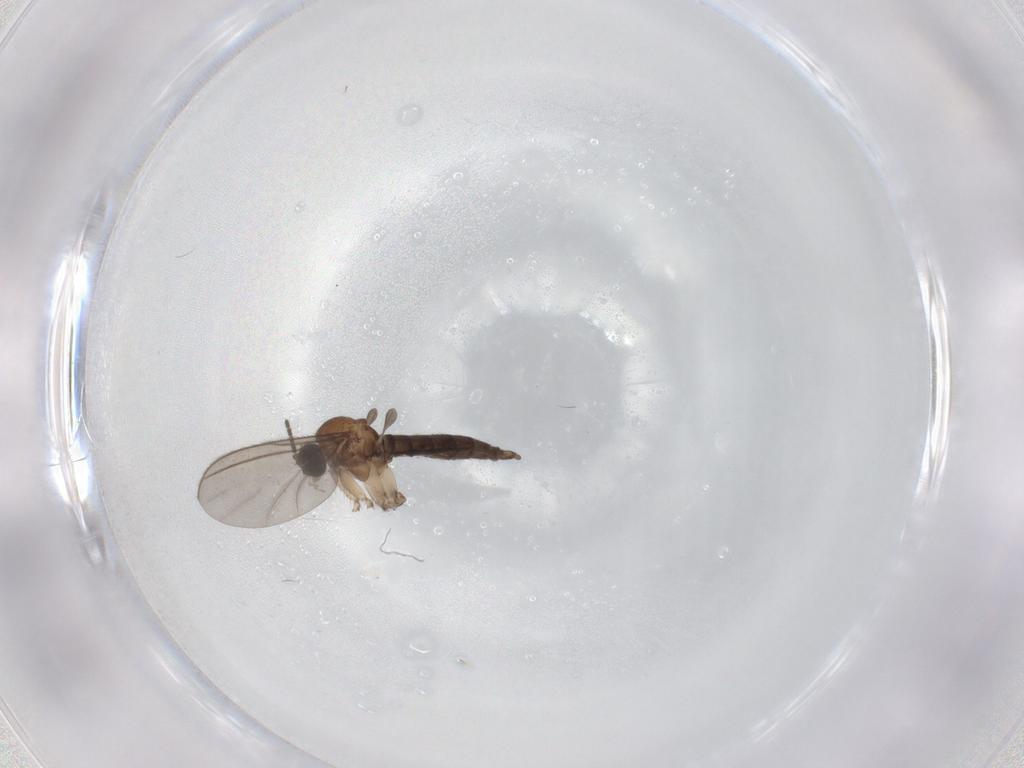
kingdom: Animalia
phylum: Arthropoda
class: Insecta
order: Diptera
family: Sciaridae
